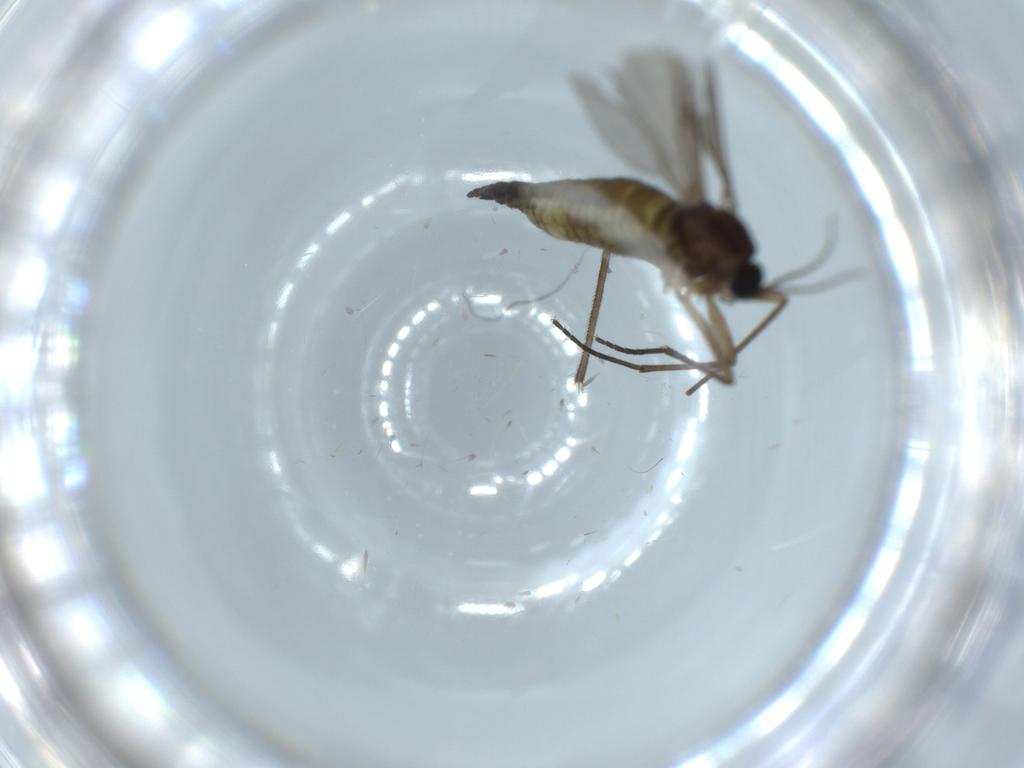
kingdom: Animalia
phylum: Arthropoda
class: Insecta
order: Diptera
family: Sciaridae
